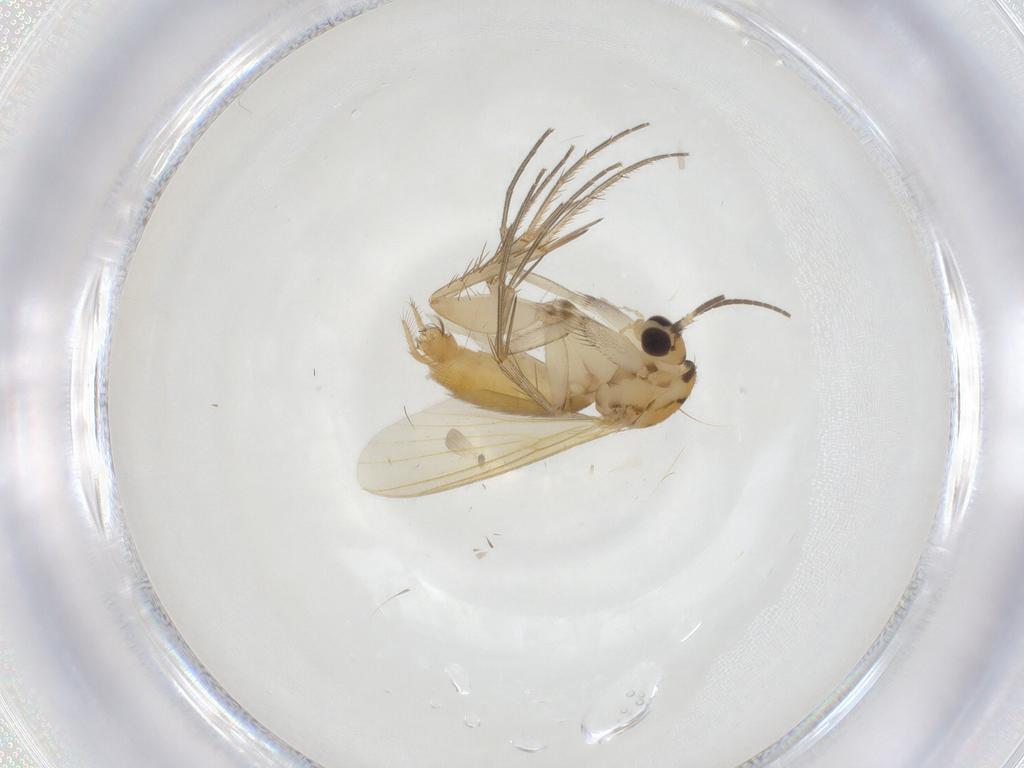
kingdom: Animalia
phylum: Arthropoda
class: Insecta
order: Diptera
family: Mycetophilidae
